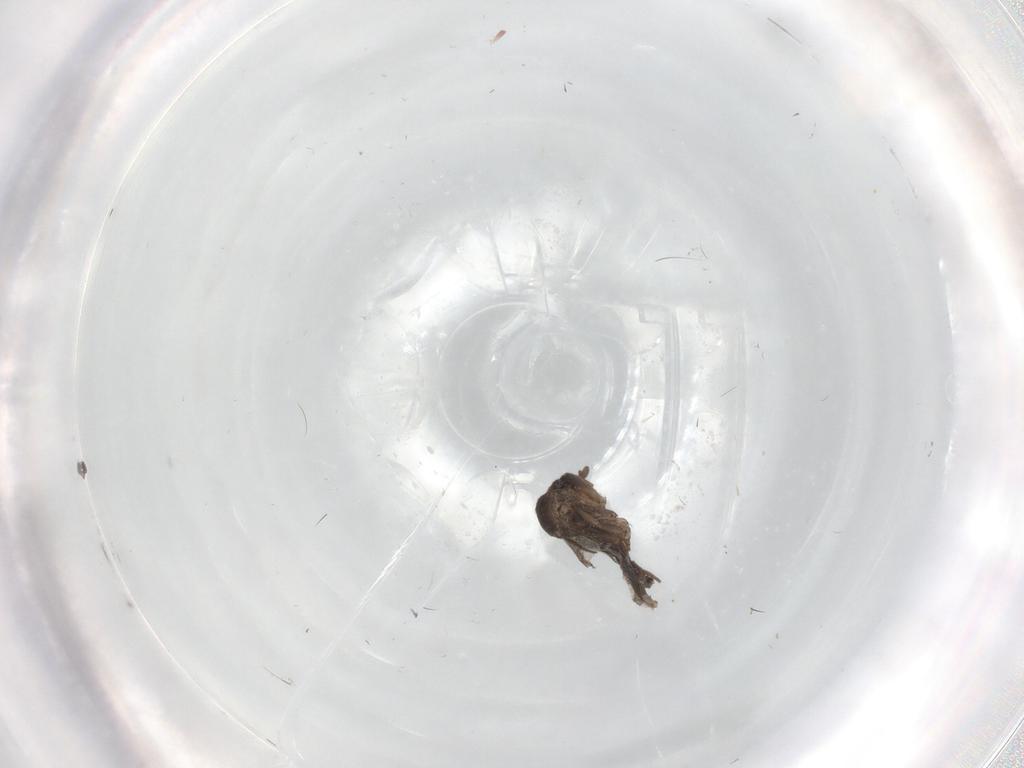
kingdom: Animalia
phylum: Arthropoda
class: Insecta
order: Diptera
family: Cecidomyiidae
